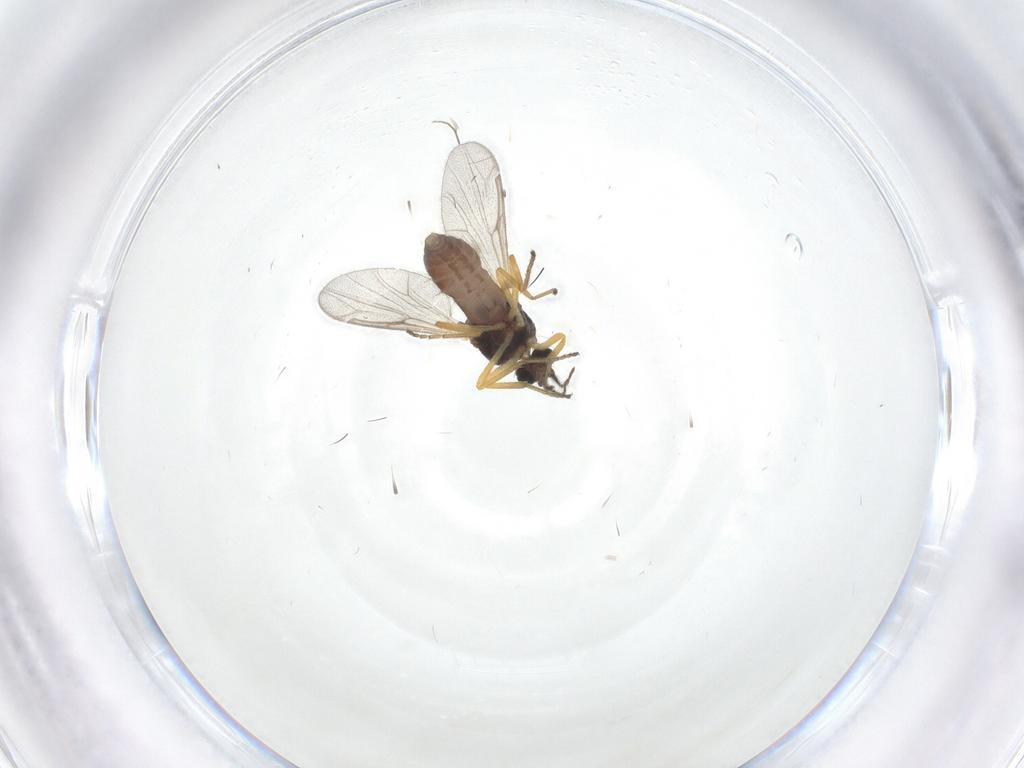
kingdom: Animalia
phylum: Arthropoda
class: Insecta
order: Diptera
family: Ceratopogonidae
